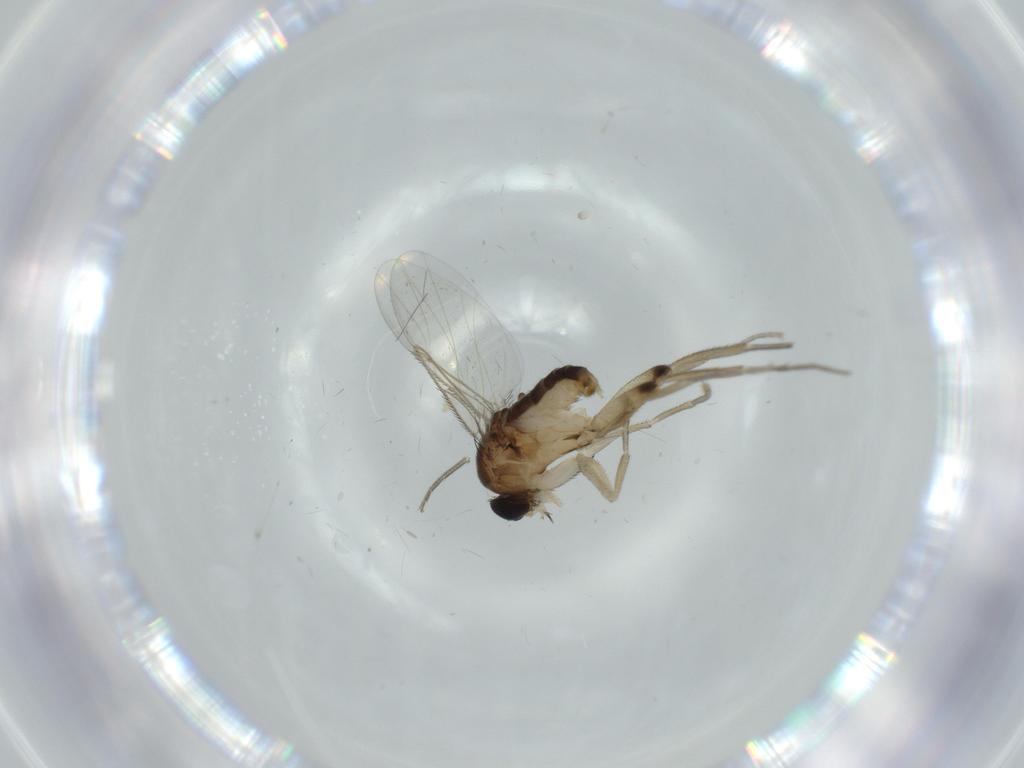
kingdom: Animalia
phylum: Arthropoda
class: Insecta
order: Diptera
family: Phoridae
